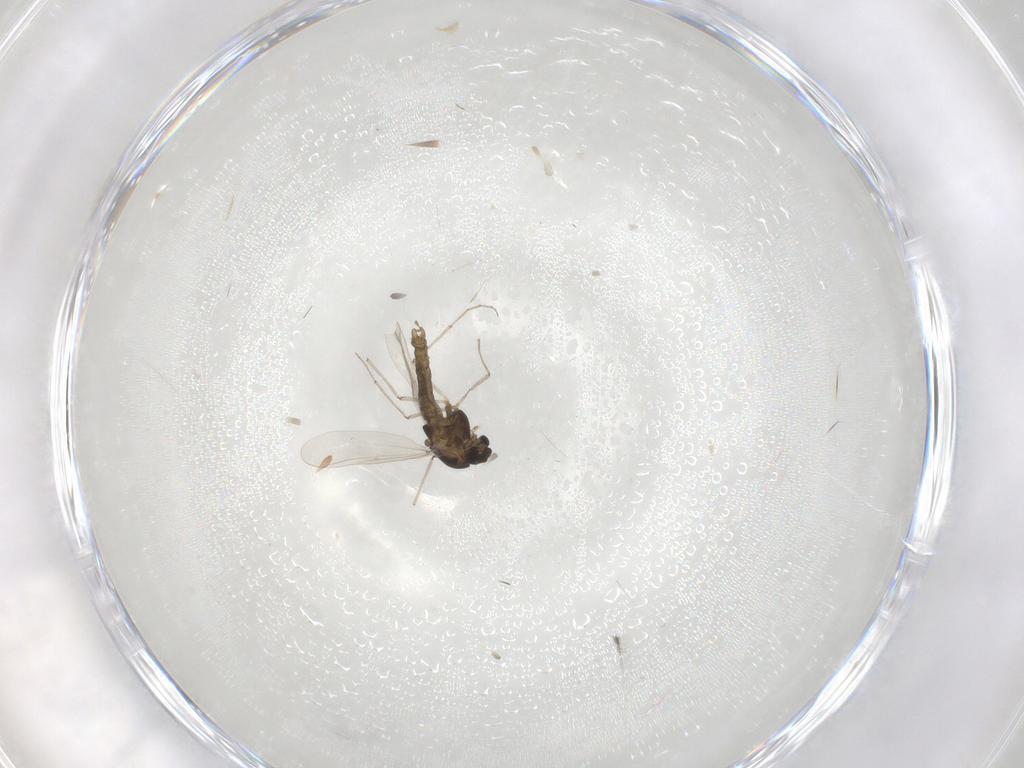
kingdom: Animalia
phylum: Arthropoda
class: Insecta
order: Diptera
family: Chironomidae
